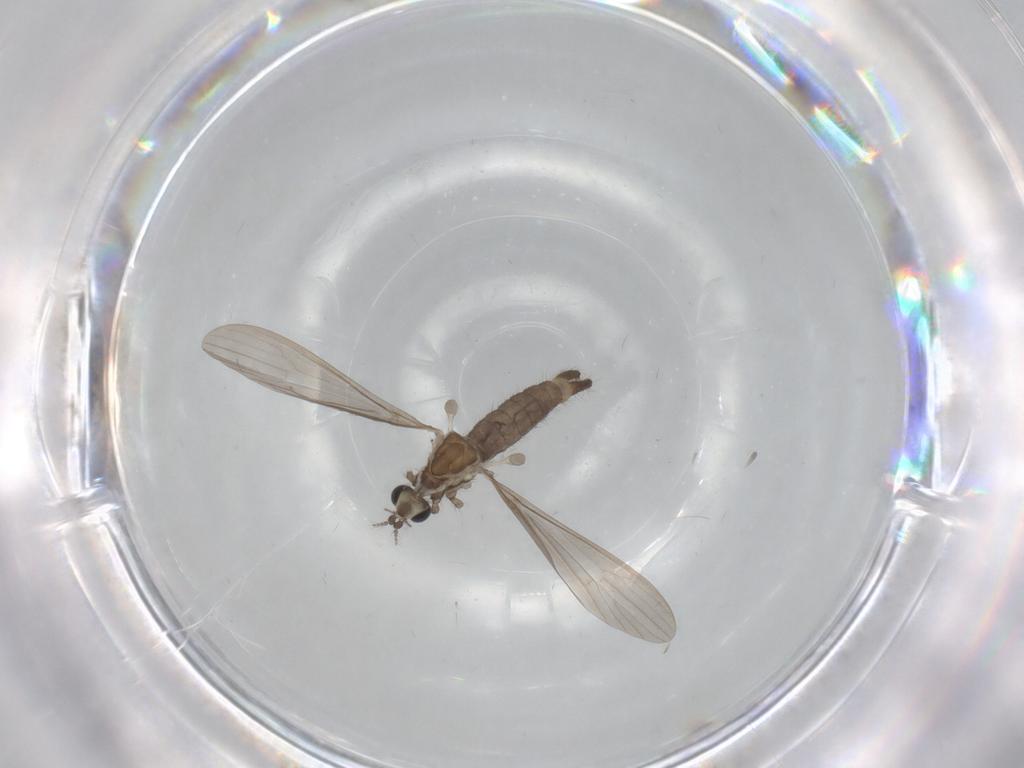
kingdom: Animalia
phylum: Arthropoda
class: Insecta
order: Diptera
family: Limoniidae
